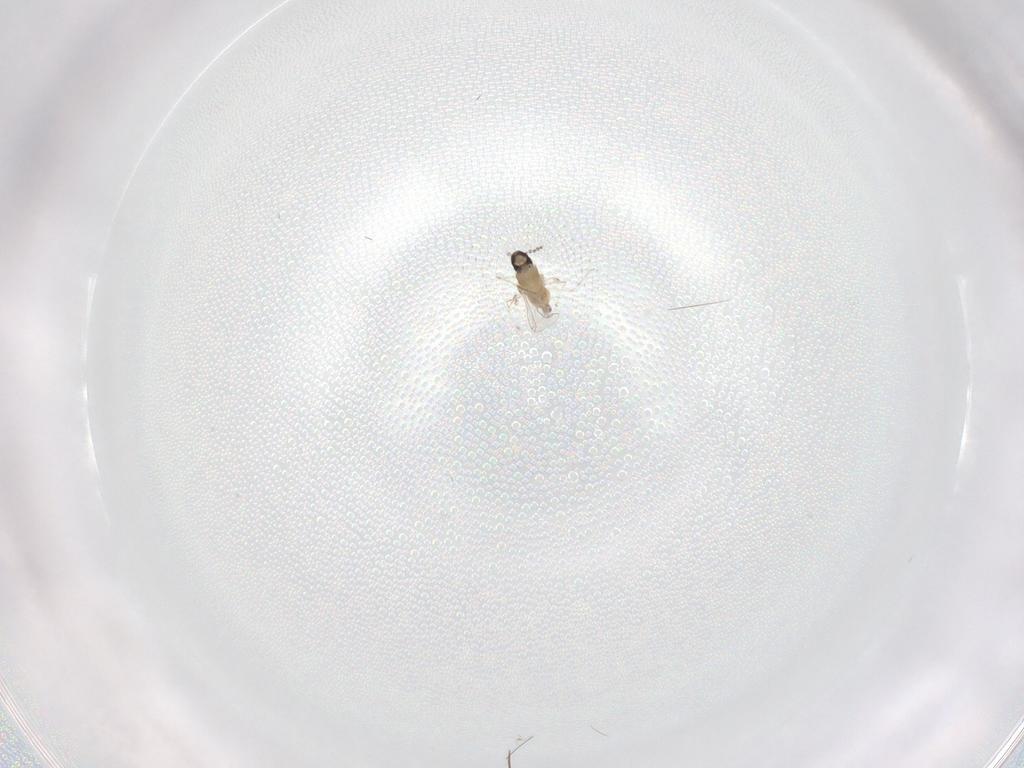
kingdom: Animalia
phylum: Arthropoda
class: Insecta
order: Diptera
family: Cecidomyiidae
